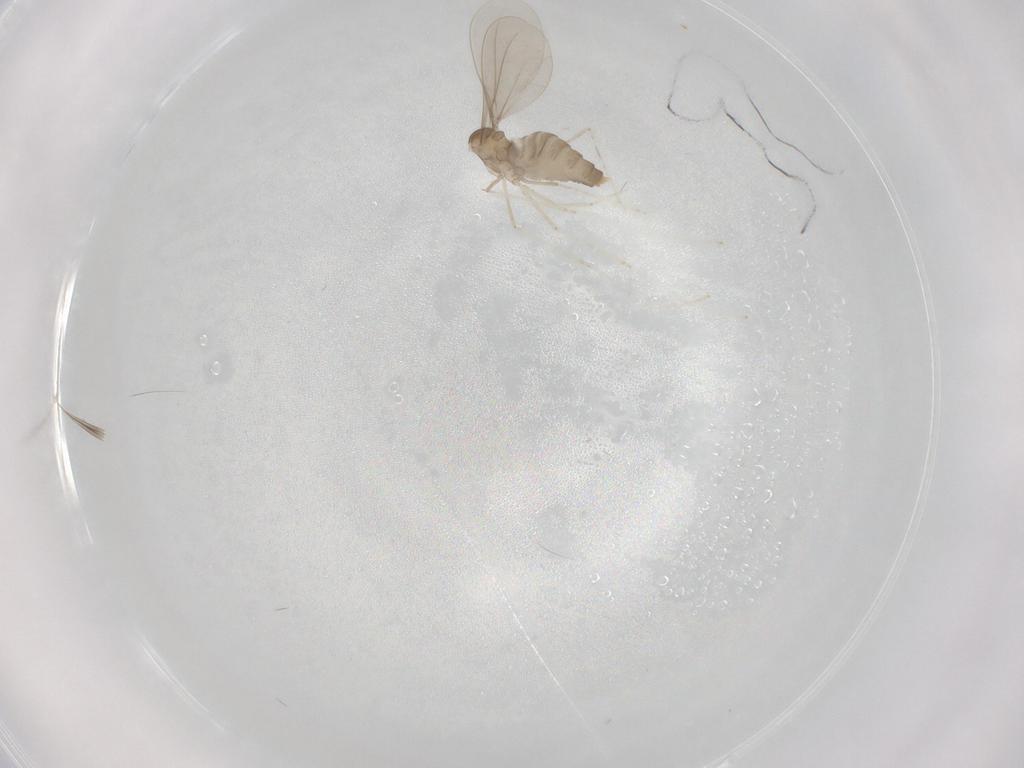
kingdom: Animalia
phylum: Arthropoda
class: Insecta
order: Diptera
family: Cecidomyiidae
